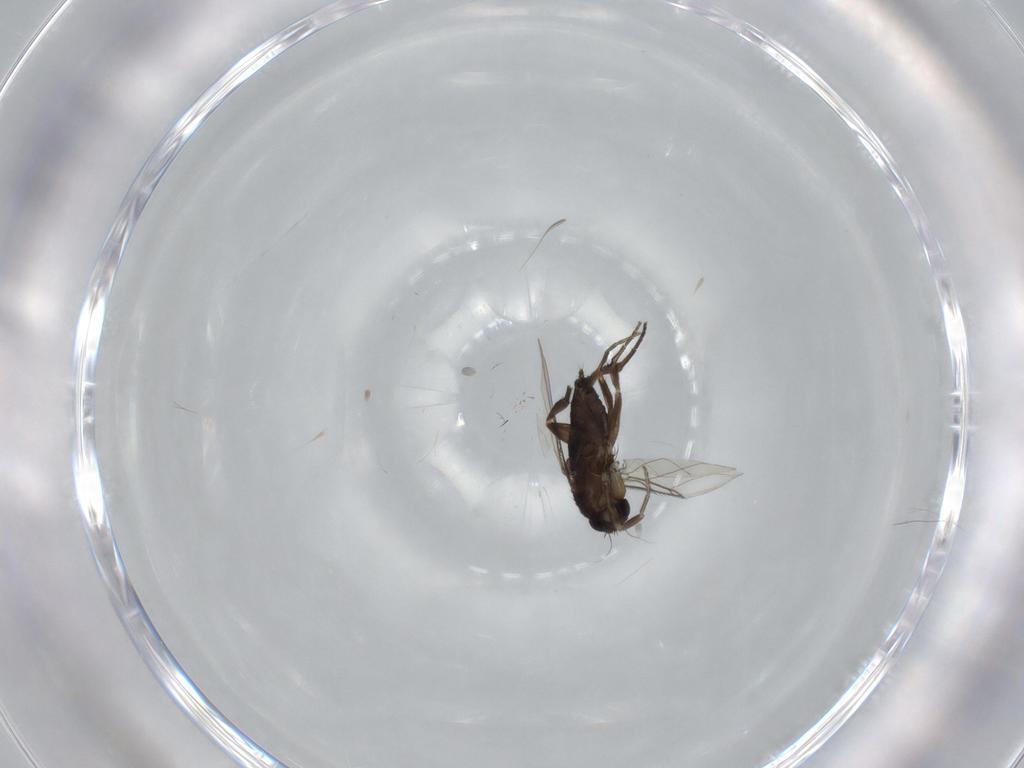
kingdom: Animalia
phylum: Arthropoda
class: Insecta
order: Diptera
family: Phoridae
